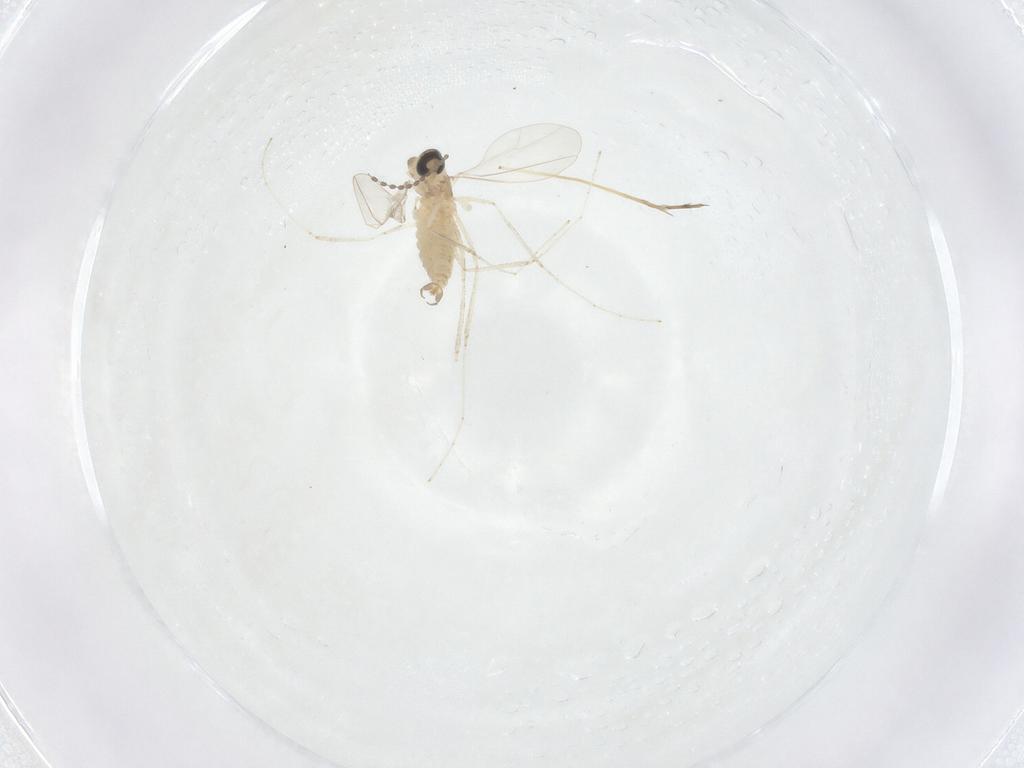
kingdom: Animalia
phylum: Arthropoda
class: Insecta
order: Diptera
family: Cecidomyiidae
